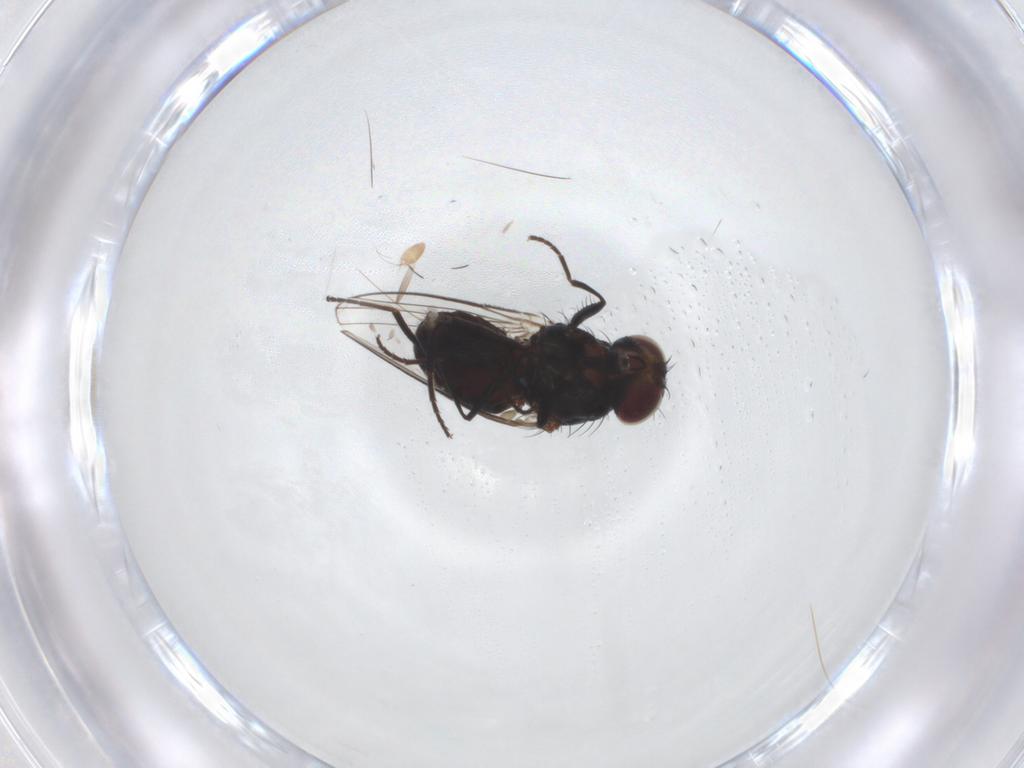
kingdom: Animalia
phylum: Arthropoda
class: Insecta
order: Diptera
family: Carnidae
